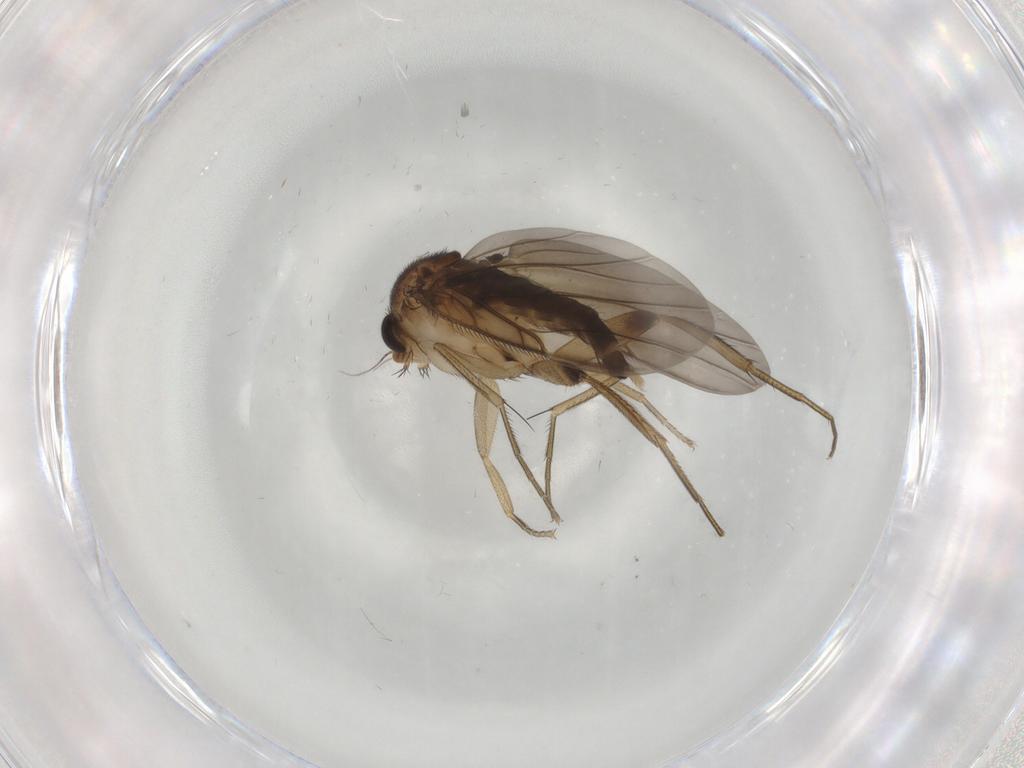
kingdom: Animalia
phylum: Arthropoda
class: Insecta
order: Diptera
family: Phoridae
